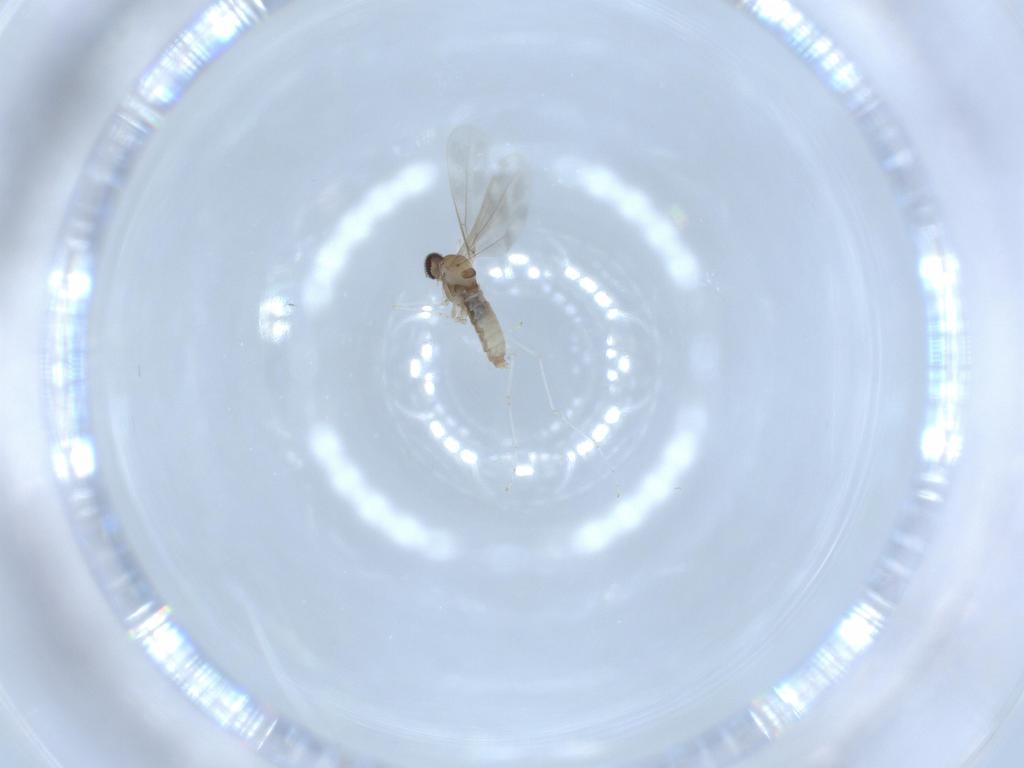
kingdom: Animalia
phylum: Arthropoda
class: Insecta
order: Diptera
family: Cecidomyiidae
